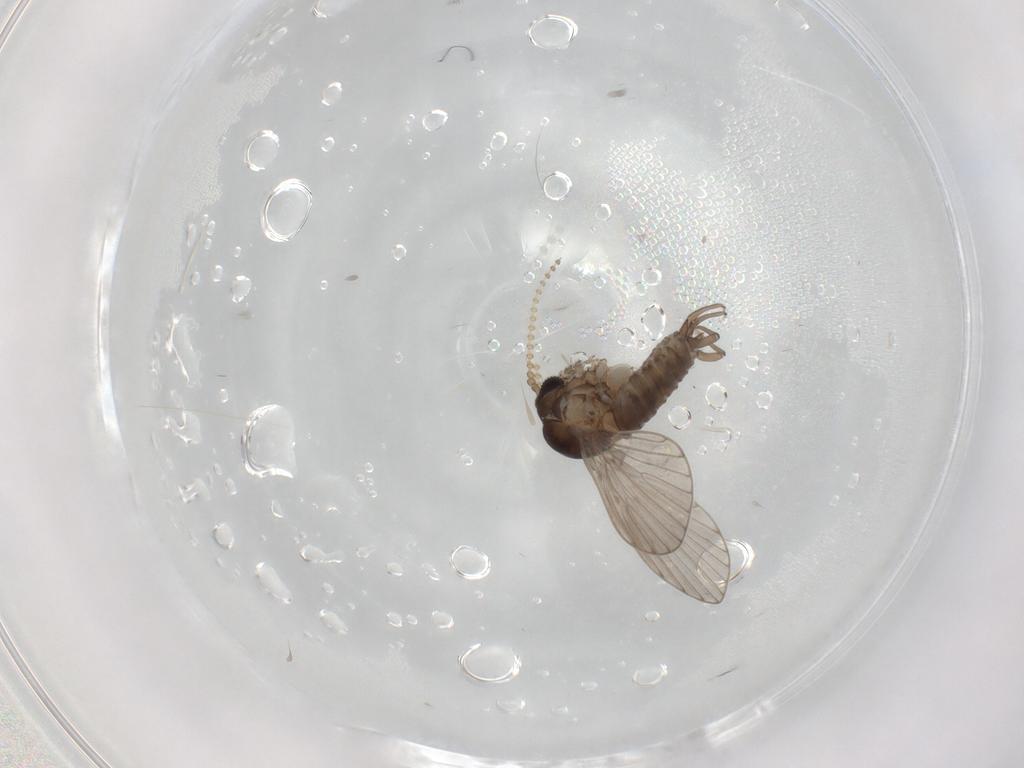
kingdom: Animalia
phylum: Arthropoda
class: Insecta
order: Diptera
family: Psychodidae
